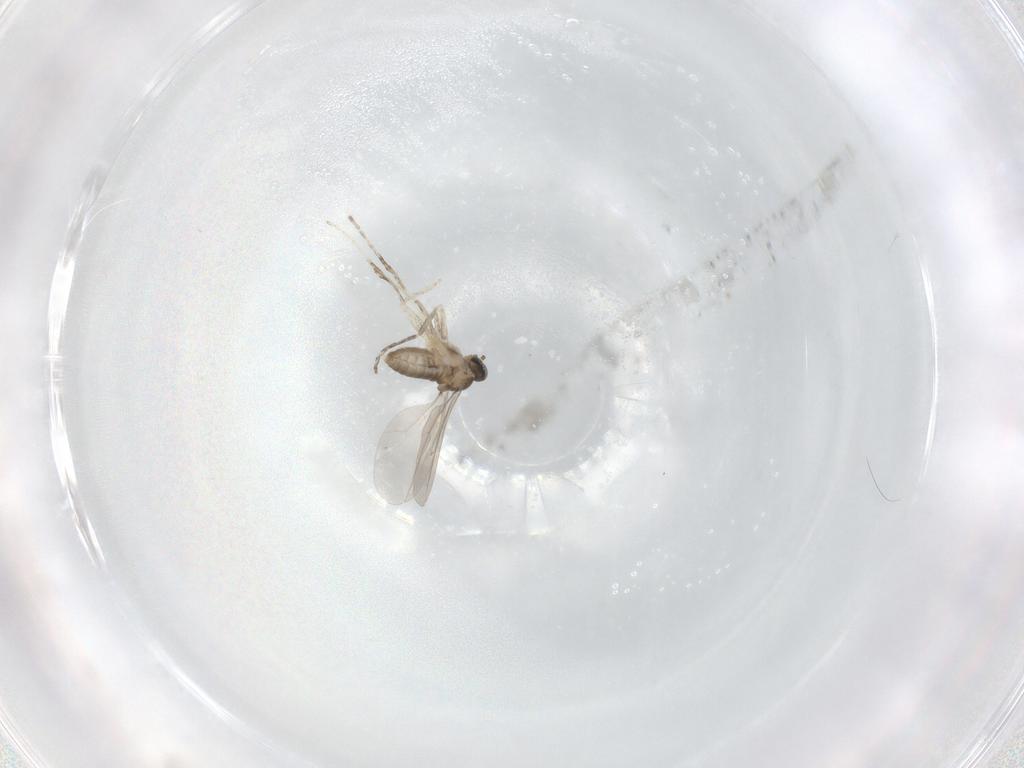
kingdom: Animalia
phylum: Arthropoda
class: Insecta
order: Diptera
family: Cecidomyiidae
